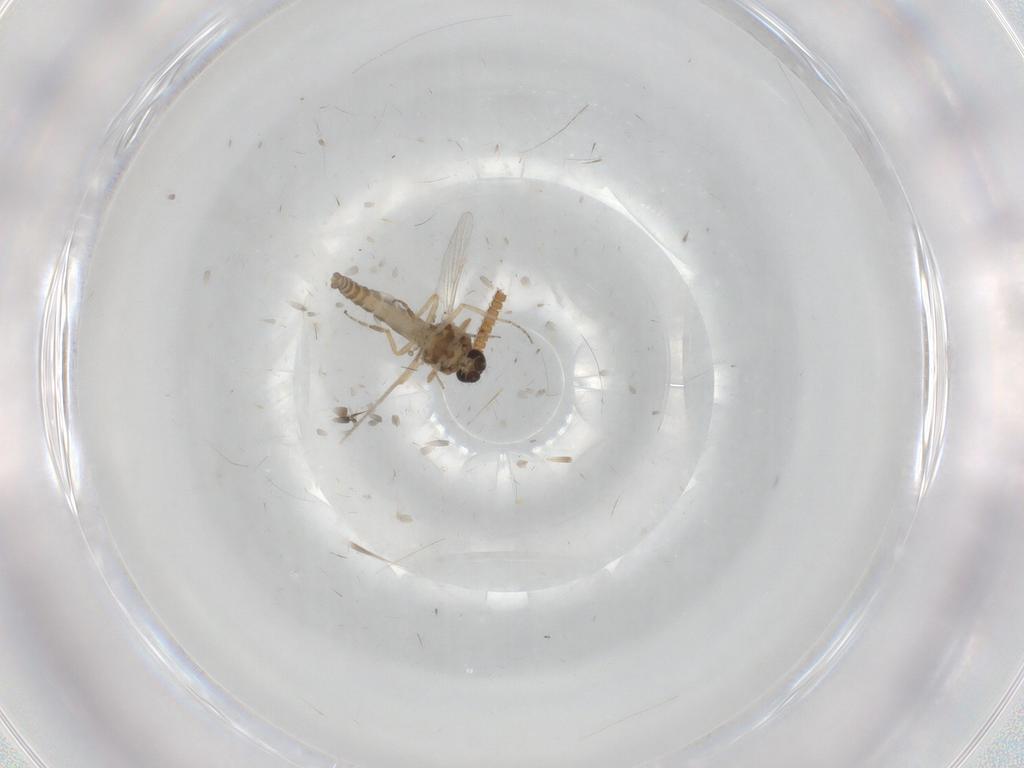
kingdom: Animalia
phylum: Arthropoda
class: Insecta
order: Diptera
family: Ceratopogonidae
